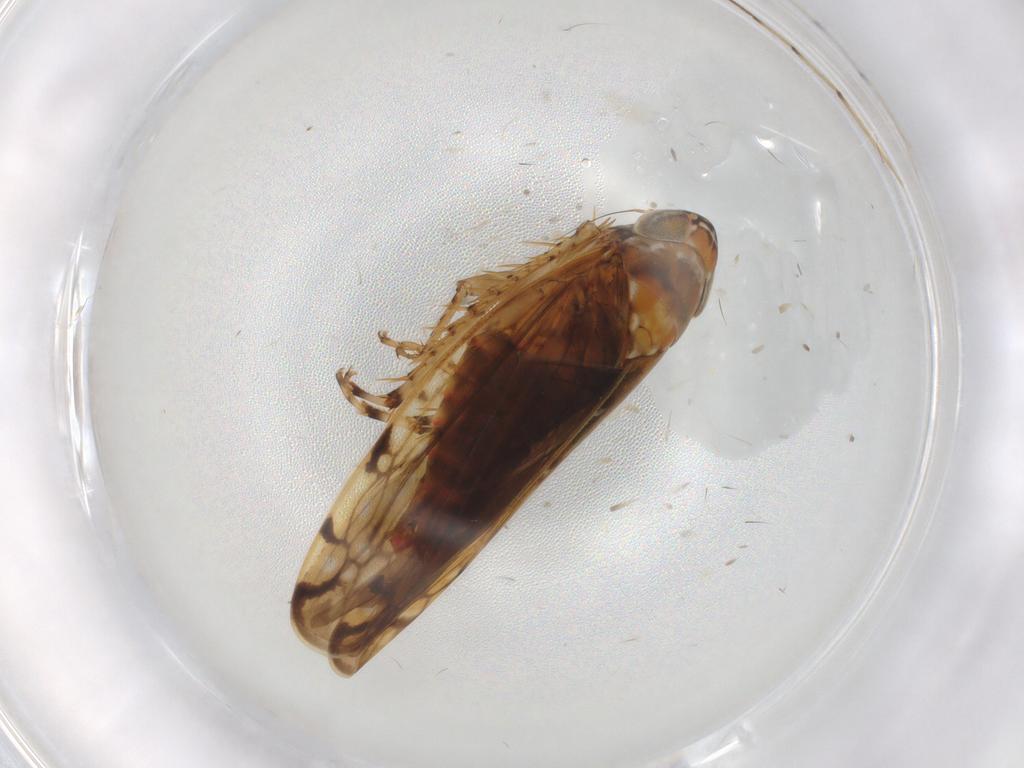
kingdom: Animalia
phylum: Arthropoda
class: Insecta
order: Hemiptera
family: Cicadellidae
